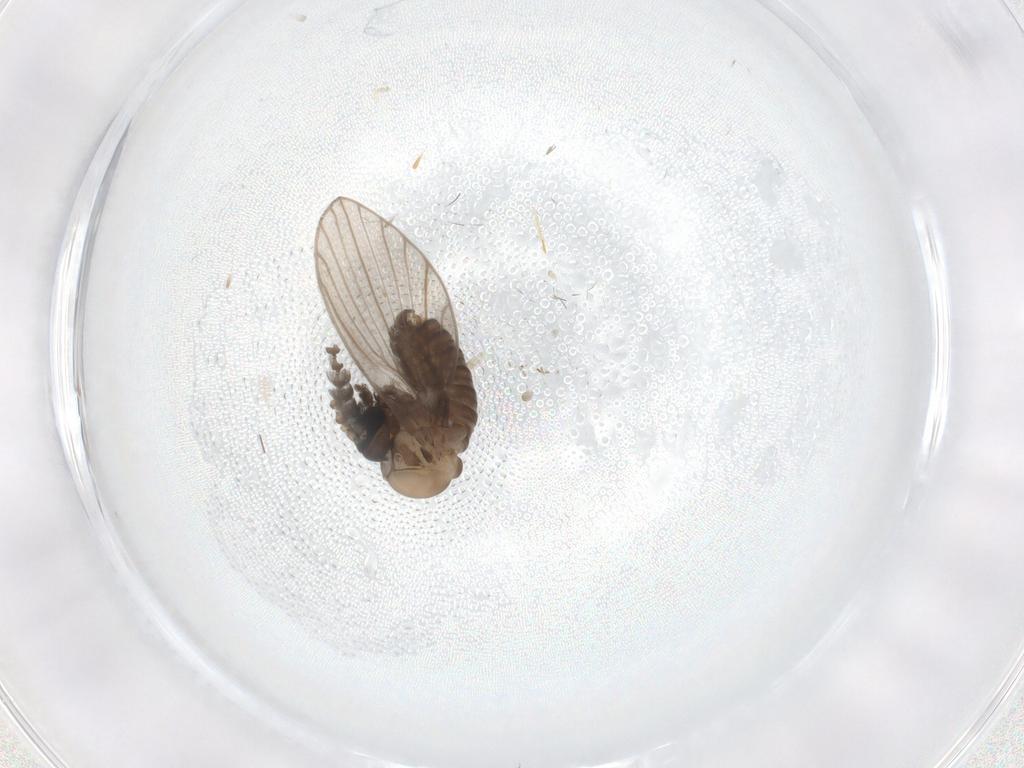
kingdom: Animalia
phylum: Arthropoda
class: Insecta
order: Diptera
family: Psychodidae
